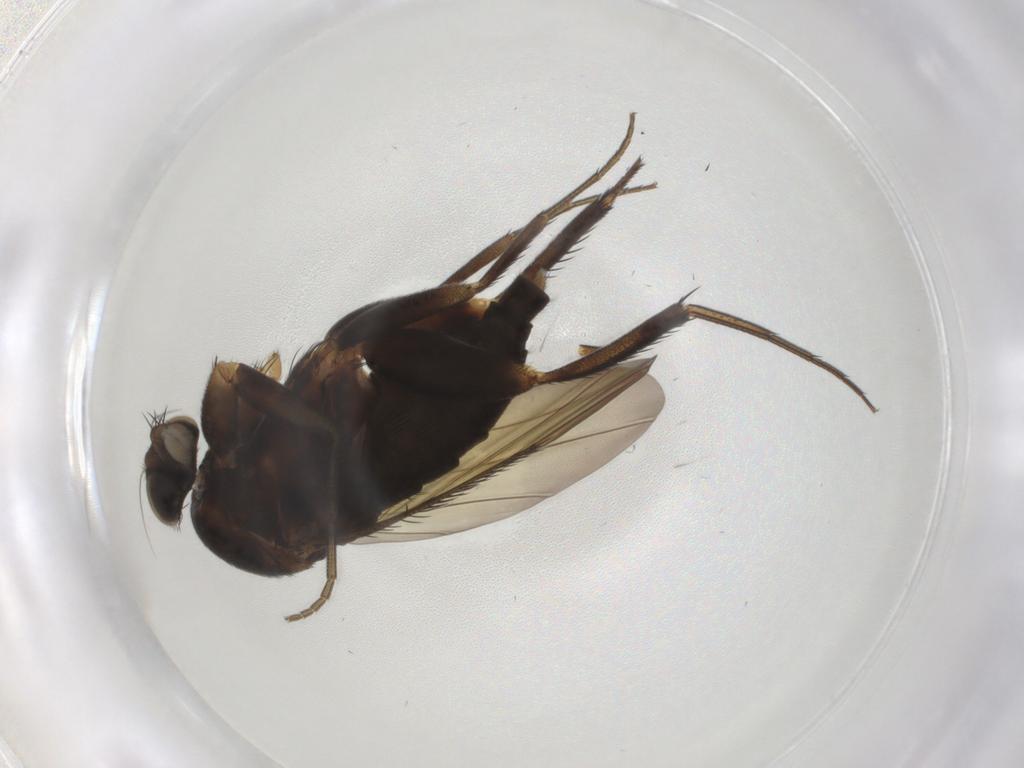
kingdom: Animalia
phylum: Arthropoda
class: Insecta
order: Diptera
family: Phoridae
